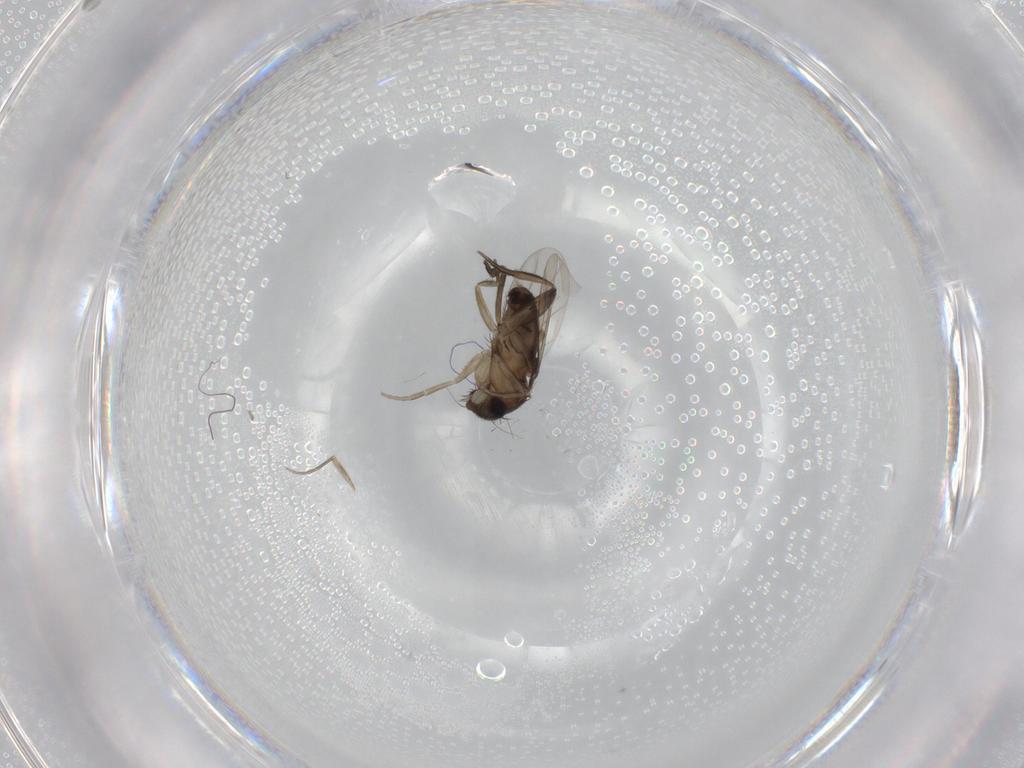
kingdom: Animalia
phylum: Arthropoda
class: Insecta
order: Diptera
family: Phoridae
